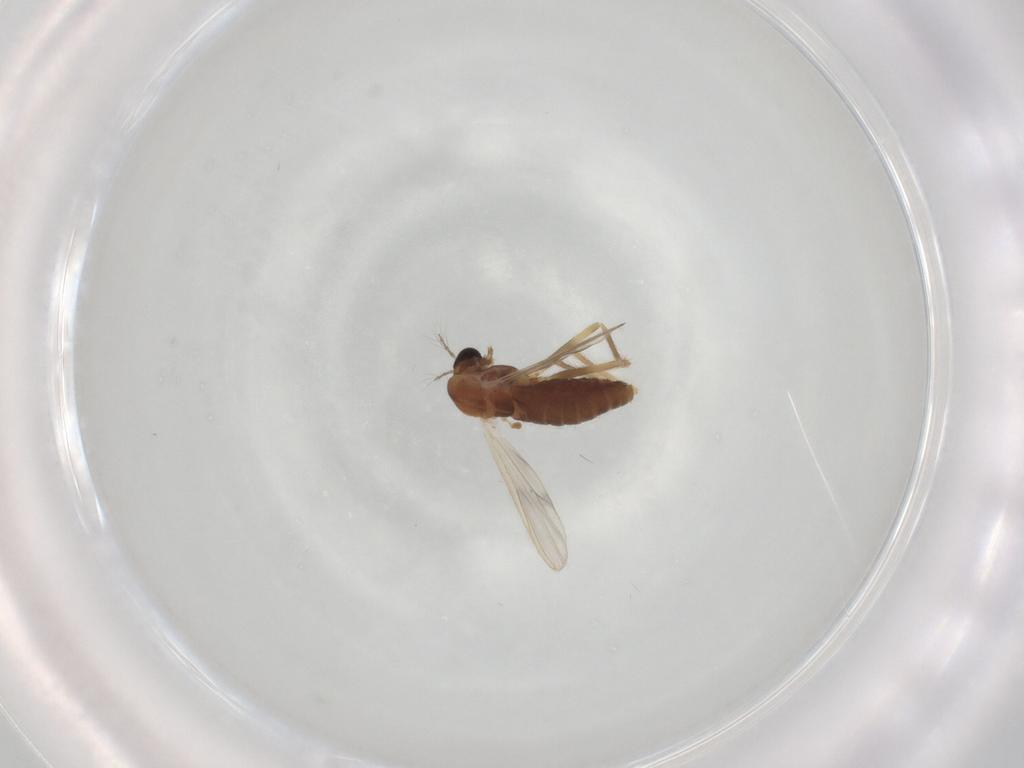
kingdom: Animalia
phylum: Arthropoda
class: Insecta
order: Diptera
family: Chironomidae
